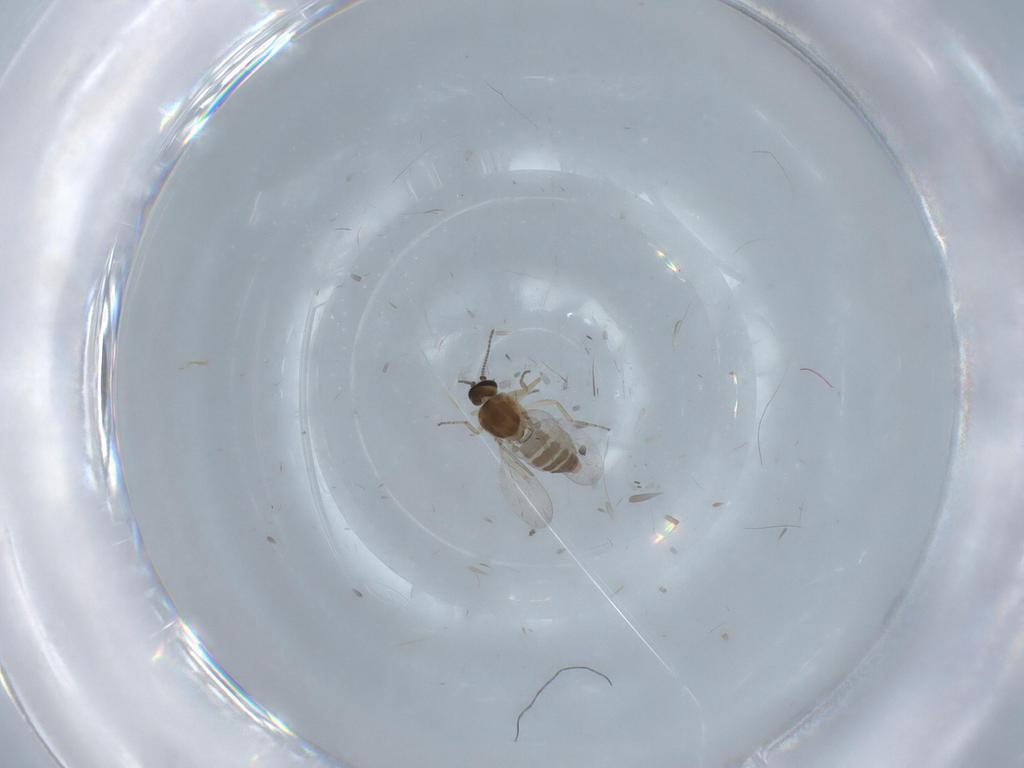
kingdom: Animalia
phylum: Arthropoda
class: Insecta
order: Diptera
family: Ceratopogonidae
